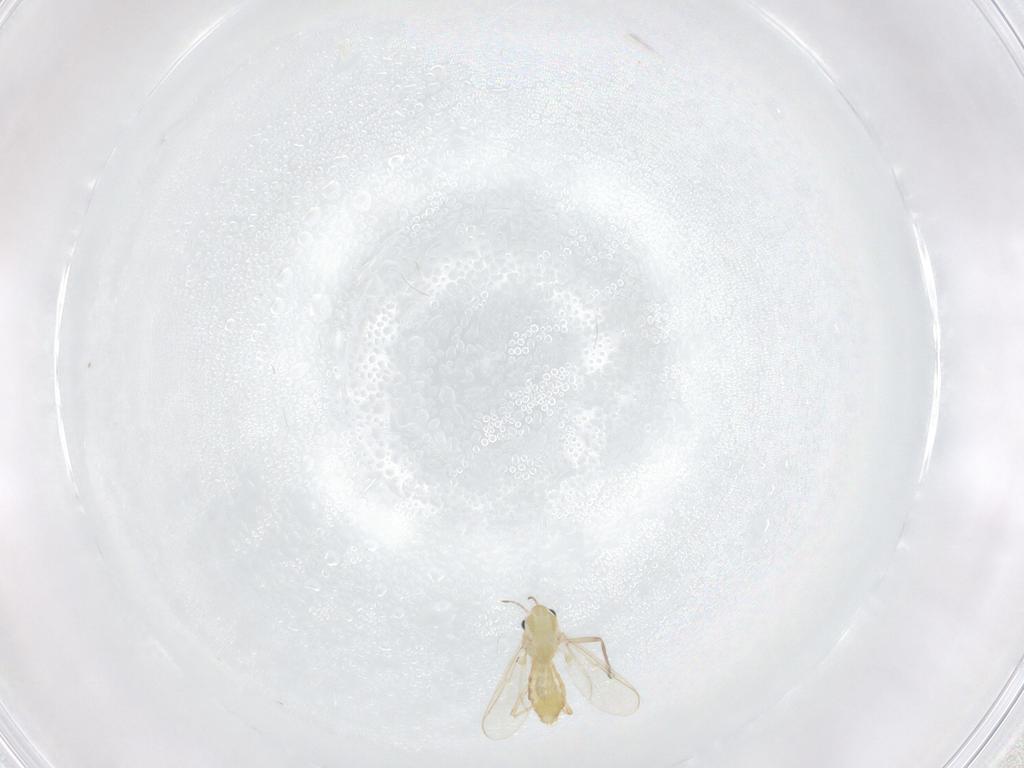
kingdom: Animalia
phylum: Arthropoda
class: Insecta
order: Diptera
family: Chironomidae
